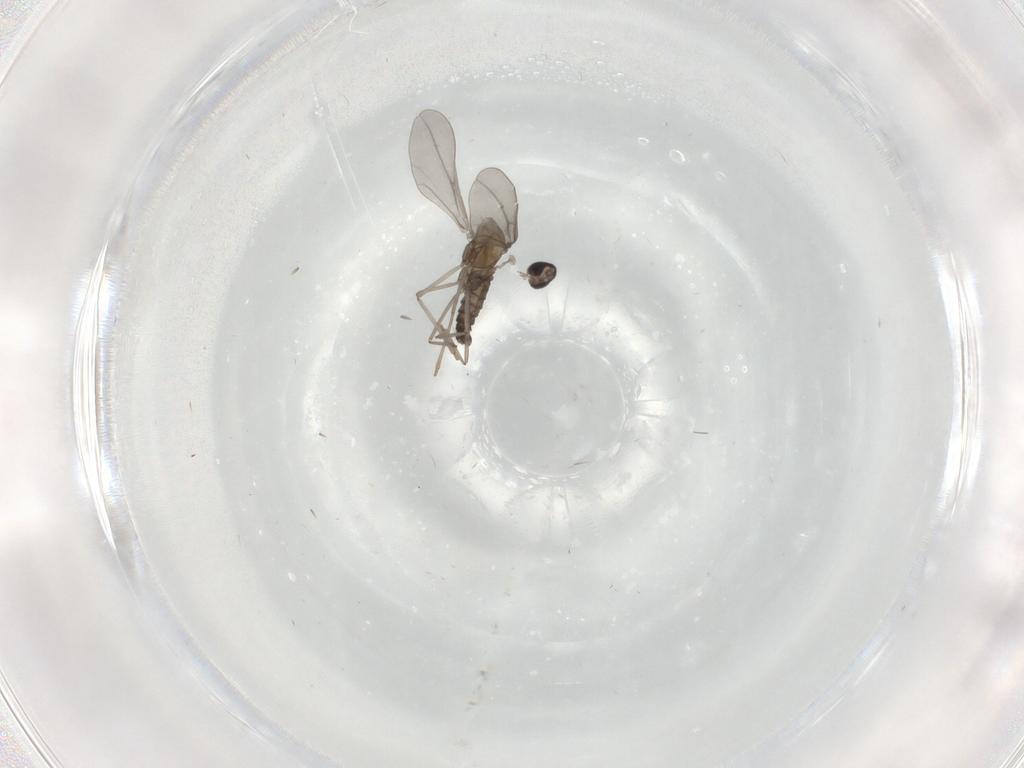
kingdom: Animalia
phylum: Arthropoda
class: Insecta
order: Diptera
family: Cecidomyiidae
